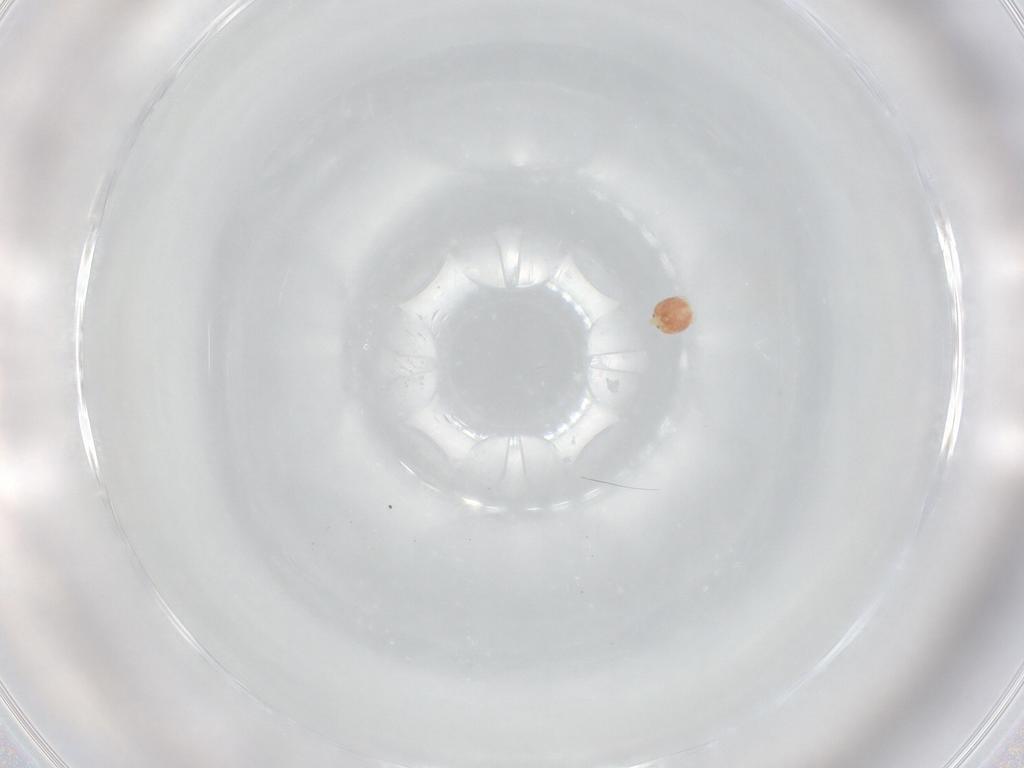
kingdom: Animalia
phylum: Arthropoda
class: Arachnida
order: Trombidiformes
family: Hygrobatidae
